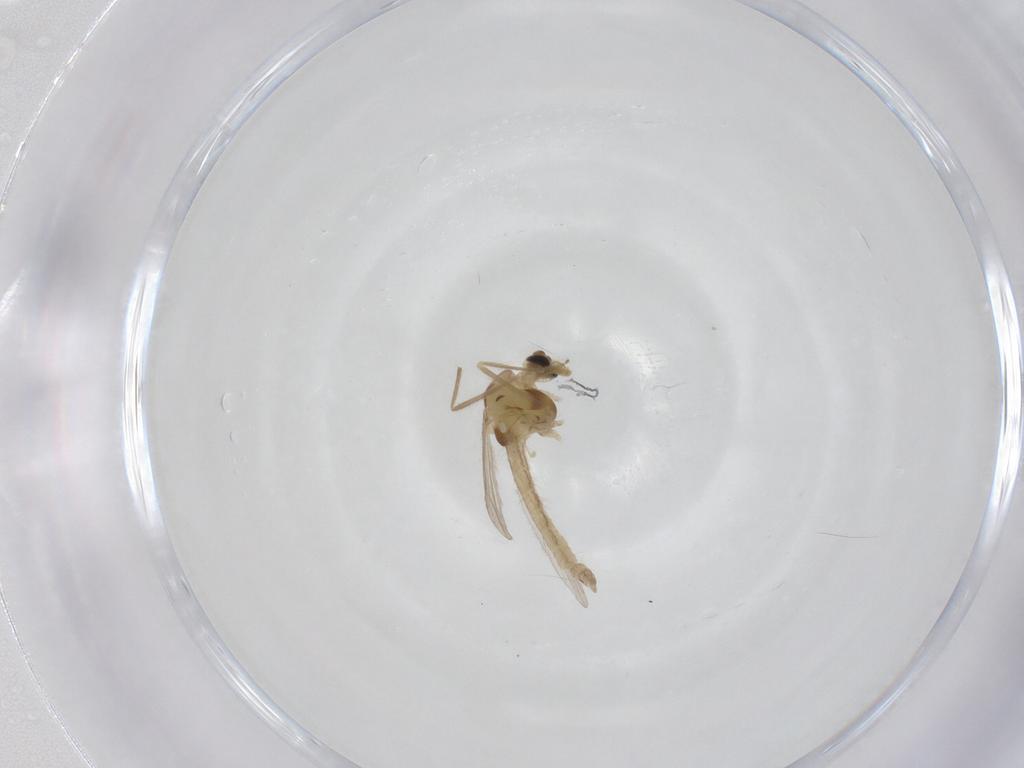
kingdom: Animalia
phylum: Arthropoda
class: Insecta
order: Diptera
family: Chironomidae
